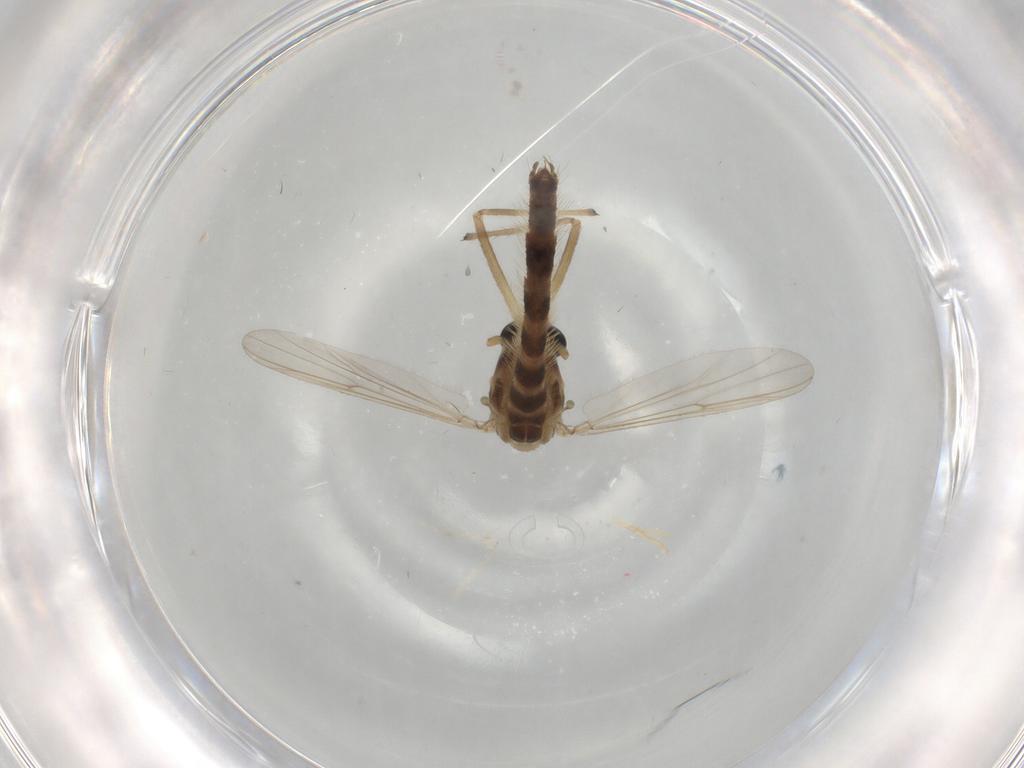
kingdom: Animalia
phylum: Arthropoda
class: Insecta
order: Diptera
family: Cecidomyiidae
